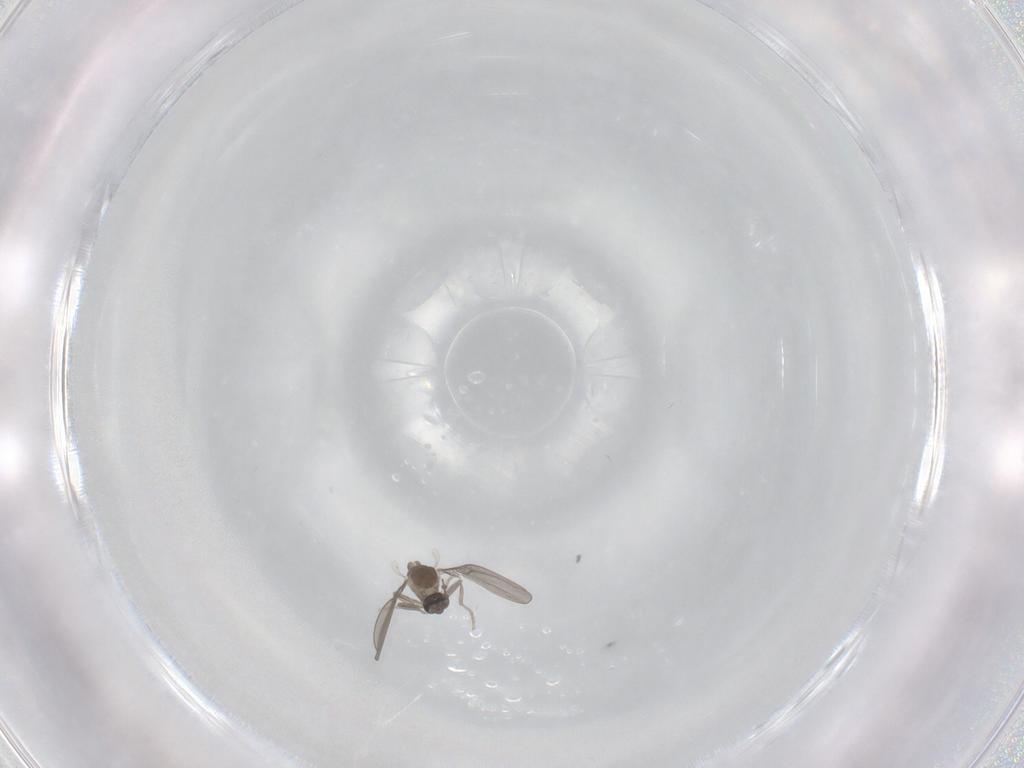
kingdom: Animalia
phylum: Arthropoda
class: Insecta
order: Diptera
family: Cecidomyiidae
